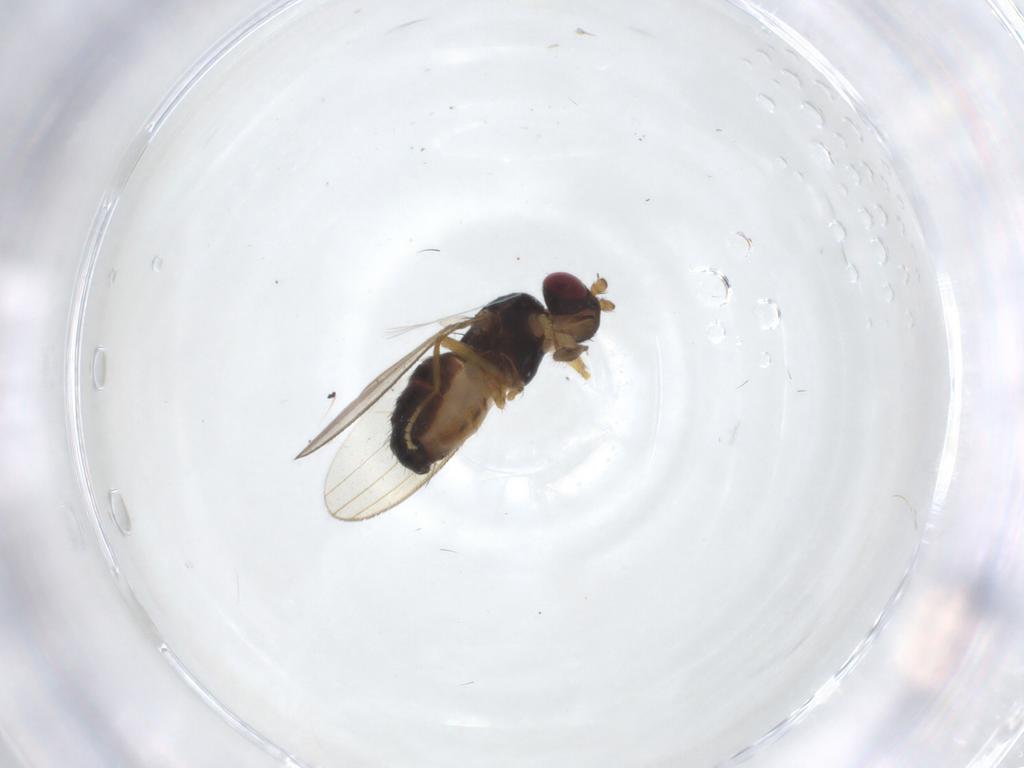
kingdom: Animalia
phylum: Arthropoda
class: Insecta
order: Diptera
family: Cypselosomatidae
